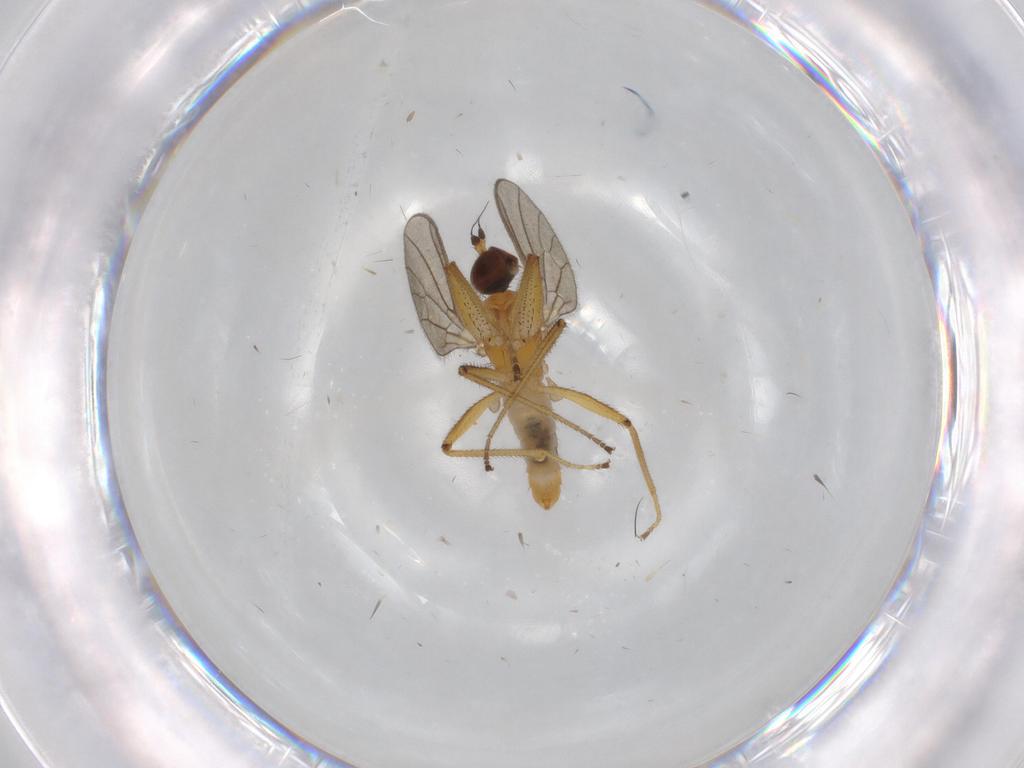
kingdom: Animalia
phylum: Arthropoda
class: Insecta
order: Diptera
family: Empididae
